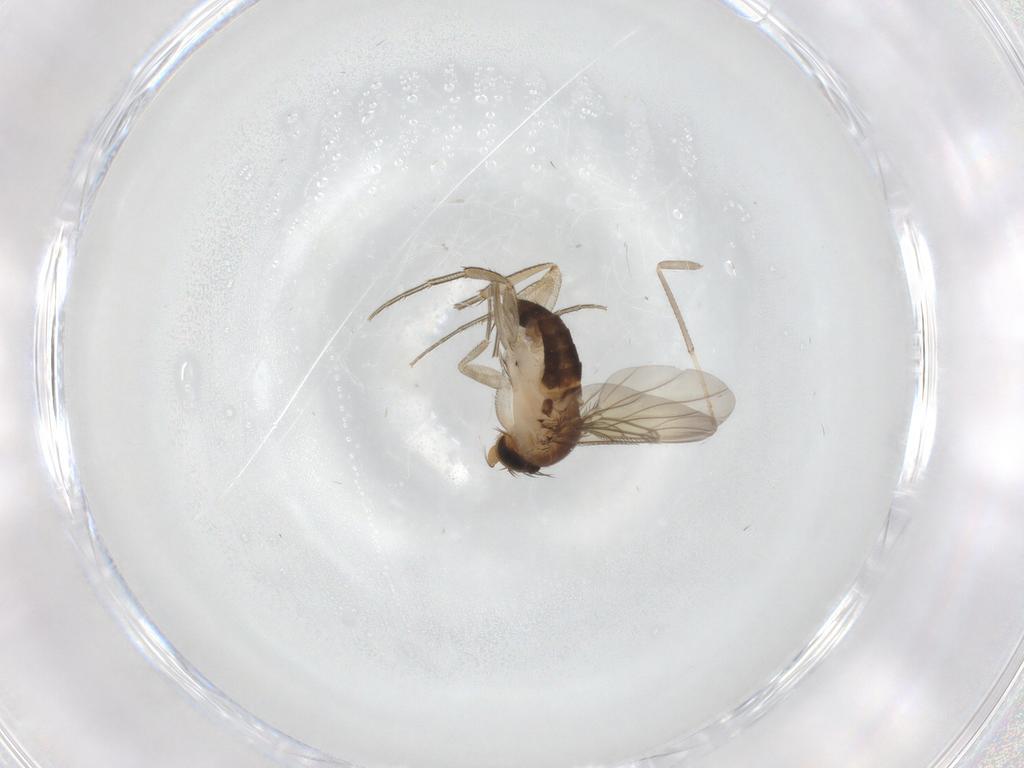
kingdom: Animalia
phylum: Arthropoda
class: Insecta
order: Diptera
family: Phoridae
